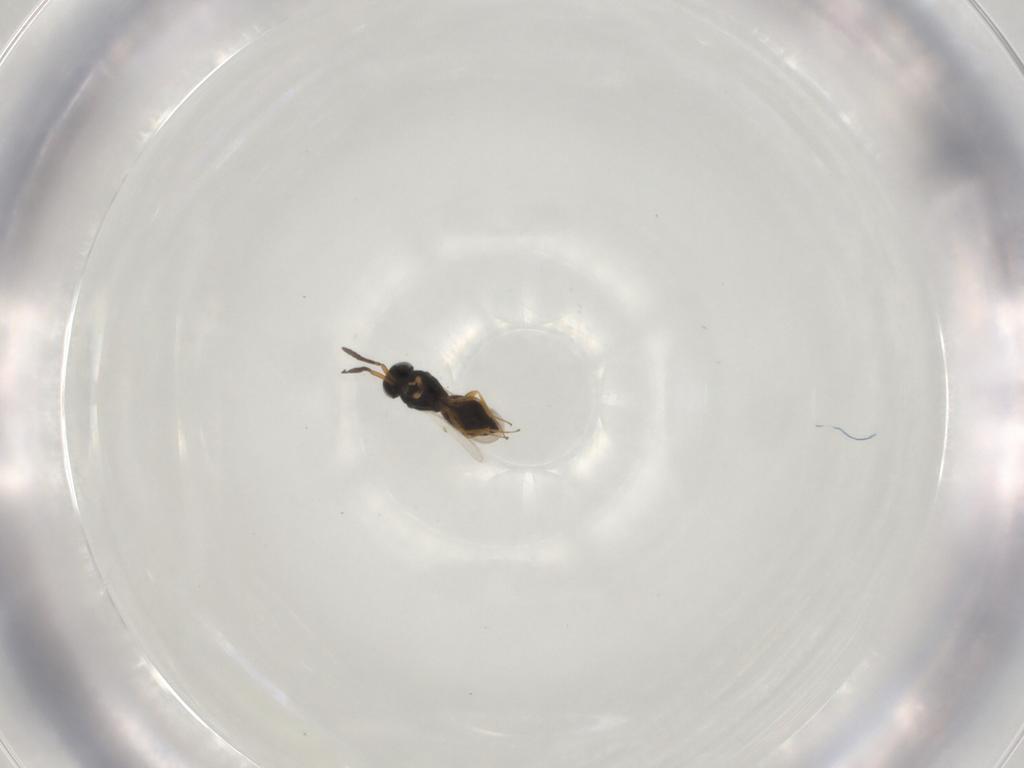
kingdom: Animalia
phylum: Arthropoda
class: Insecta
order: Hymenoptera
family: Scelionidae
